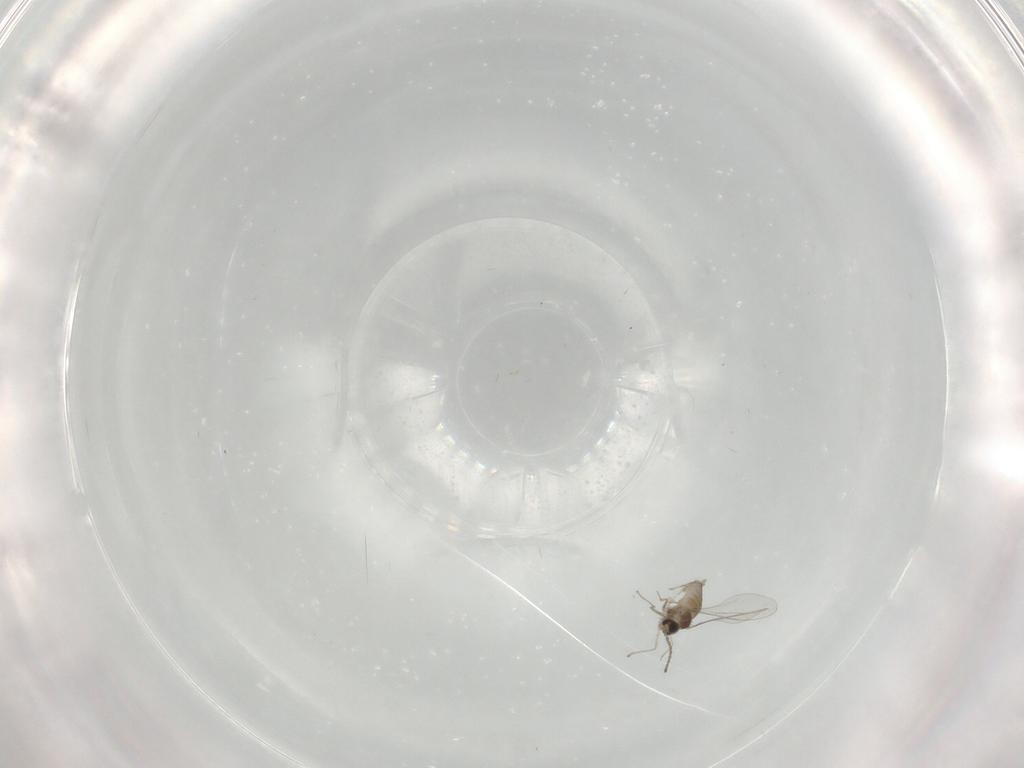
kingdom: Animalia
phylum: Arthropoda
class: Insecta
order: Diptera
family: Cecidomyiidae
